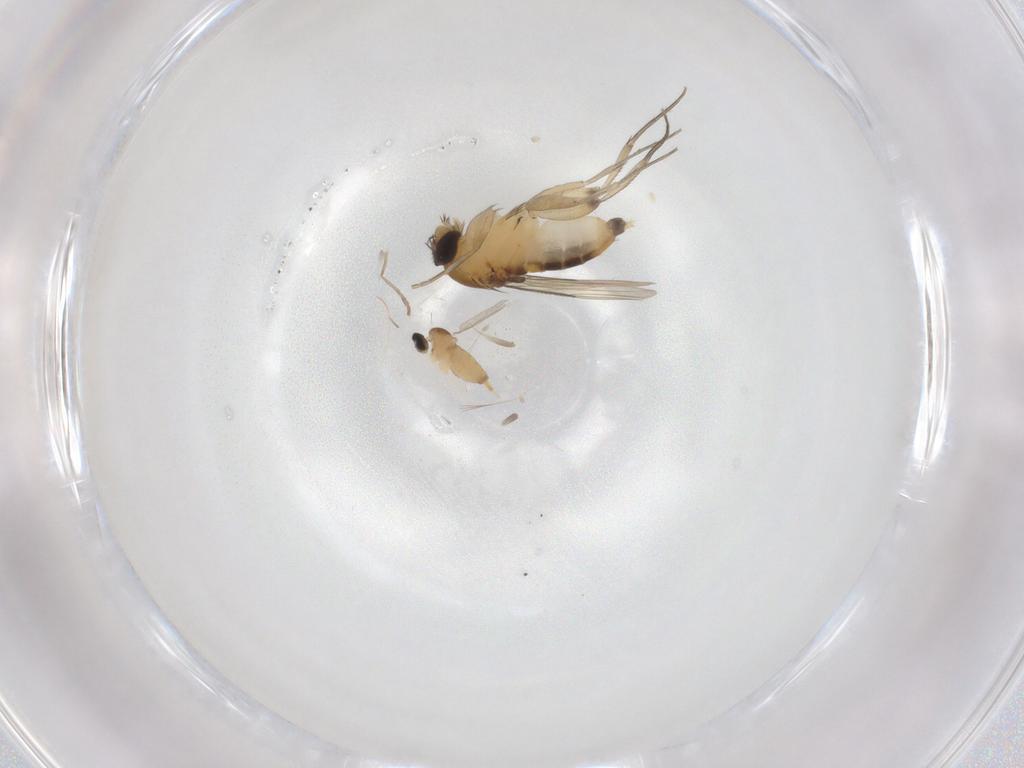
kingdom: Animalia
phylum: Arthropoda
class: Insecta
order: Diptera
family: Phoridae
